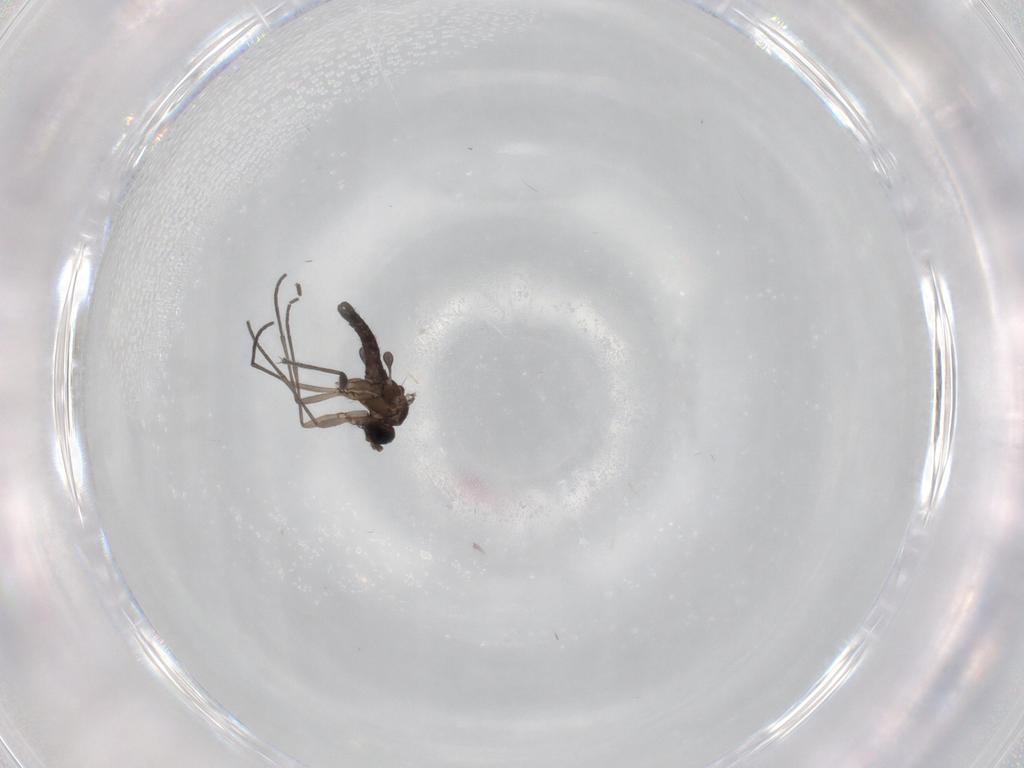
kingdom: Animalia
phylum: Arthropoda
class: Insecta
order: Diptera
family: Sciaridae
